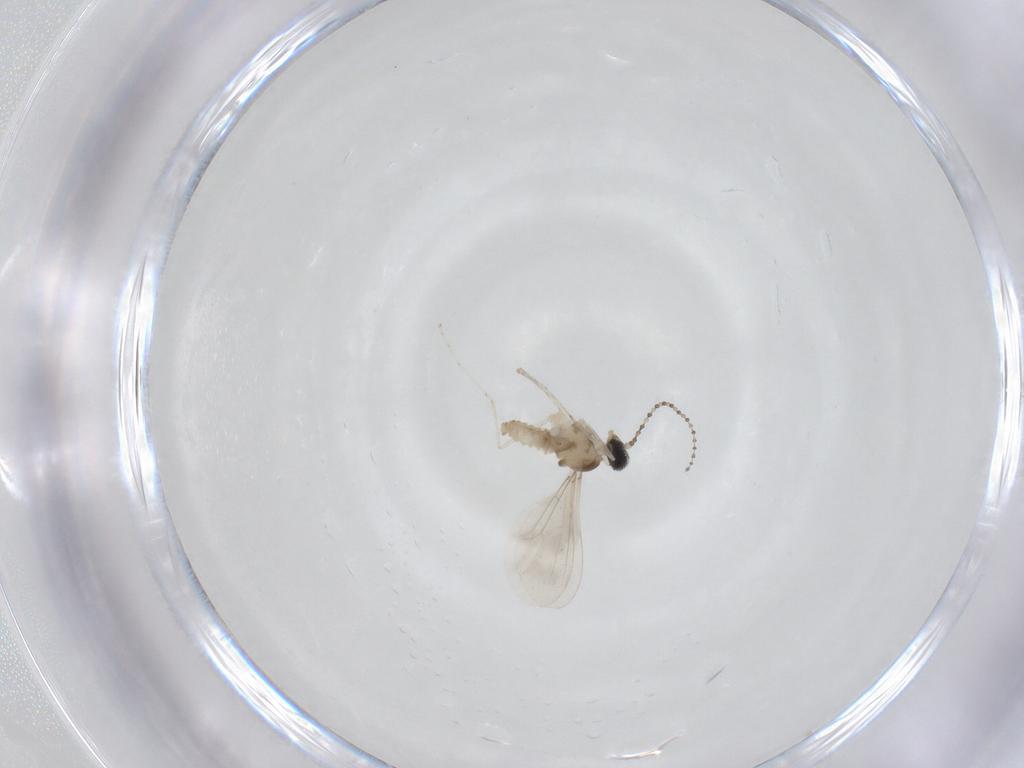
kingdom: Animalia
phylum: Arthropoda
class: Insecta
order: Diptera
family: Cecidomyiidae
